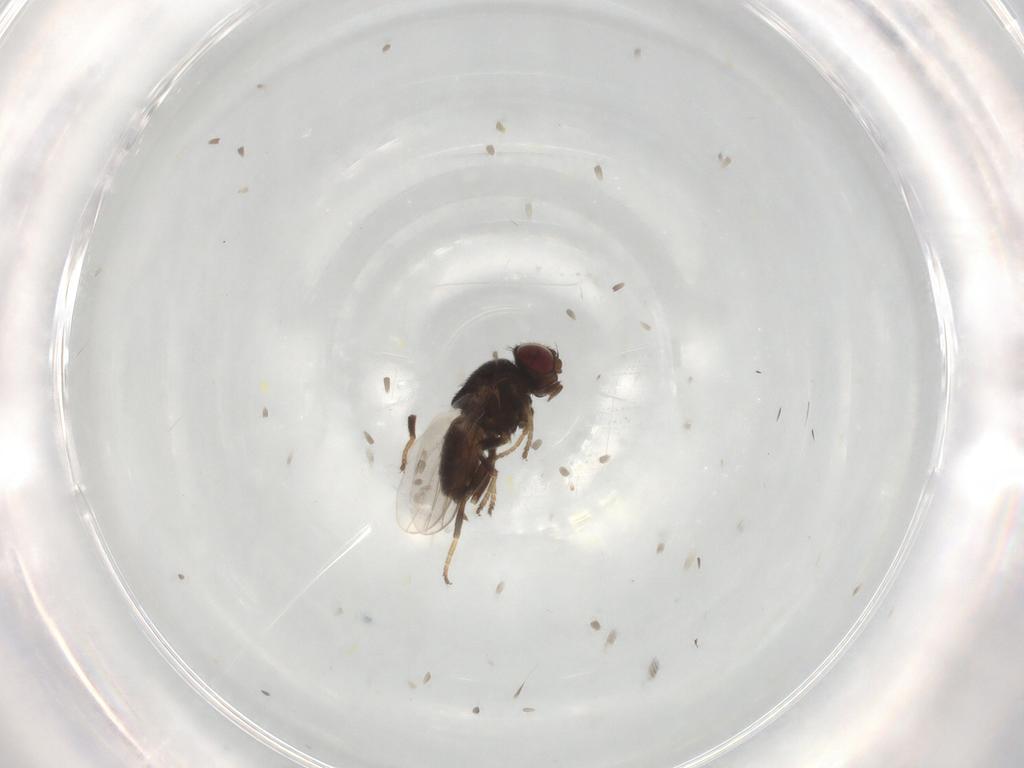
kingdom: Animalia
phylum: Arthropoda
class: Insecta
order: Diptera
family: Chloropidae
